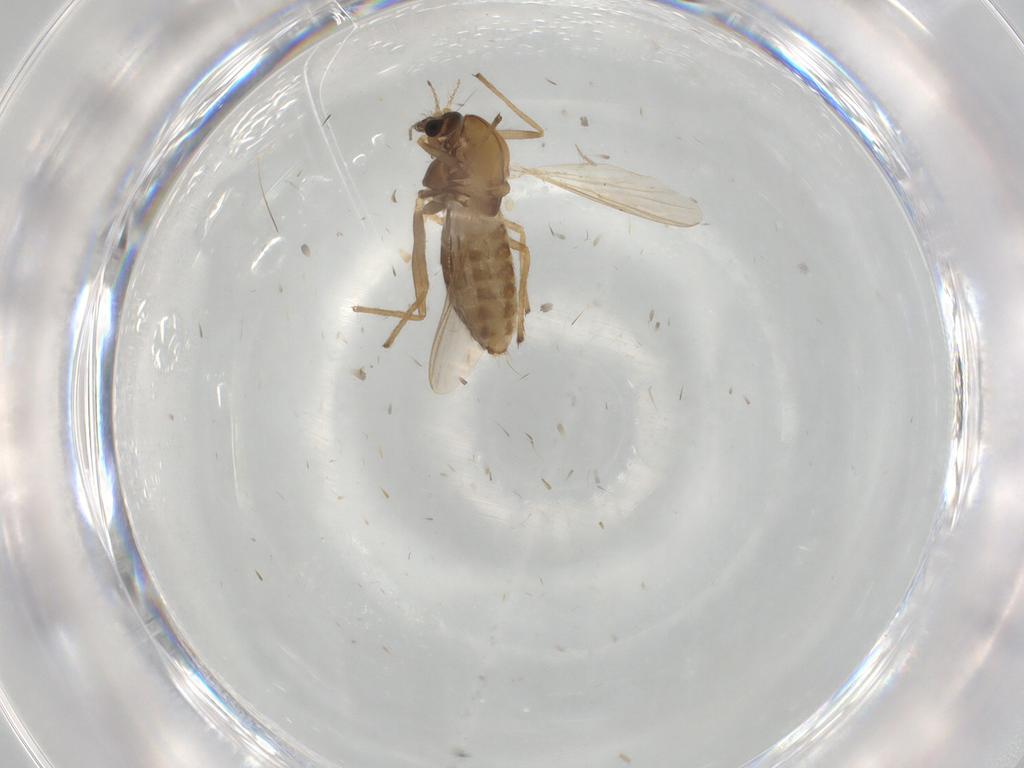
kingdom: Animalia
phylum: Arthropoda
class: Insecta
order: Diptera
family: Chironomidae
